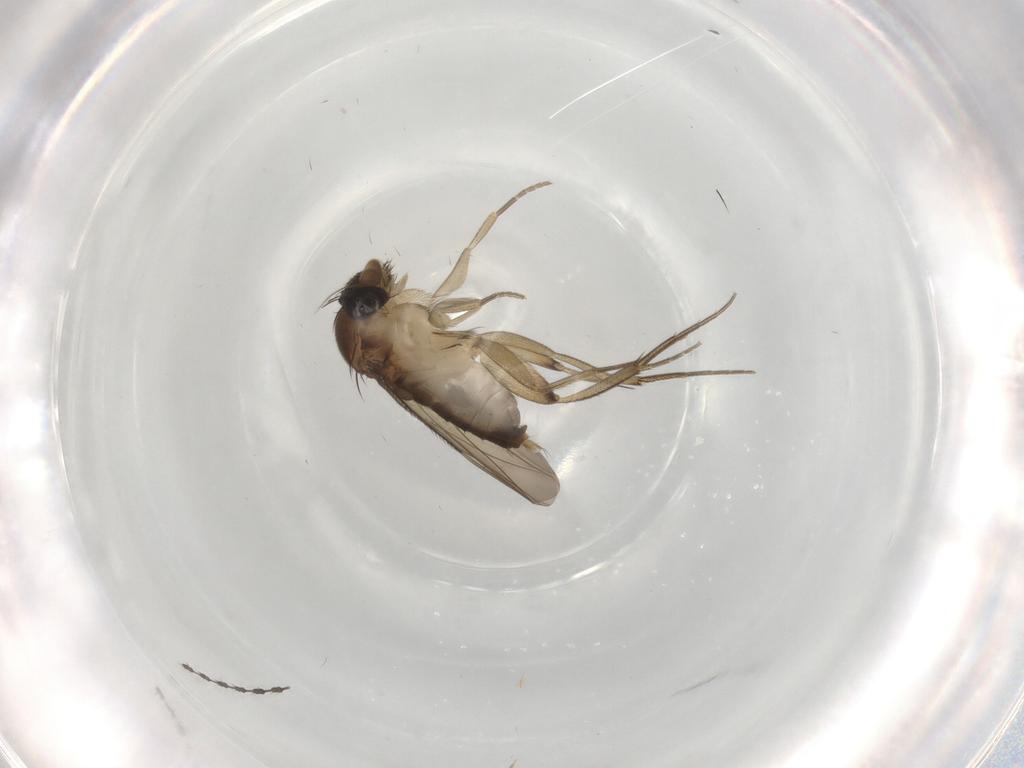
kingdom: Animalia
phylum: Arthropoda
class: Insecta
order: Diptera
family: Phoridae
